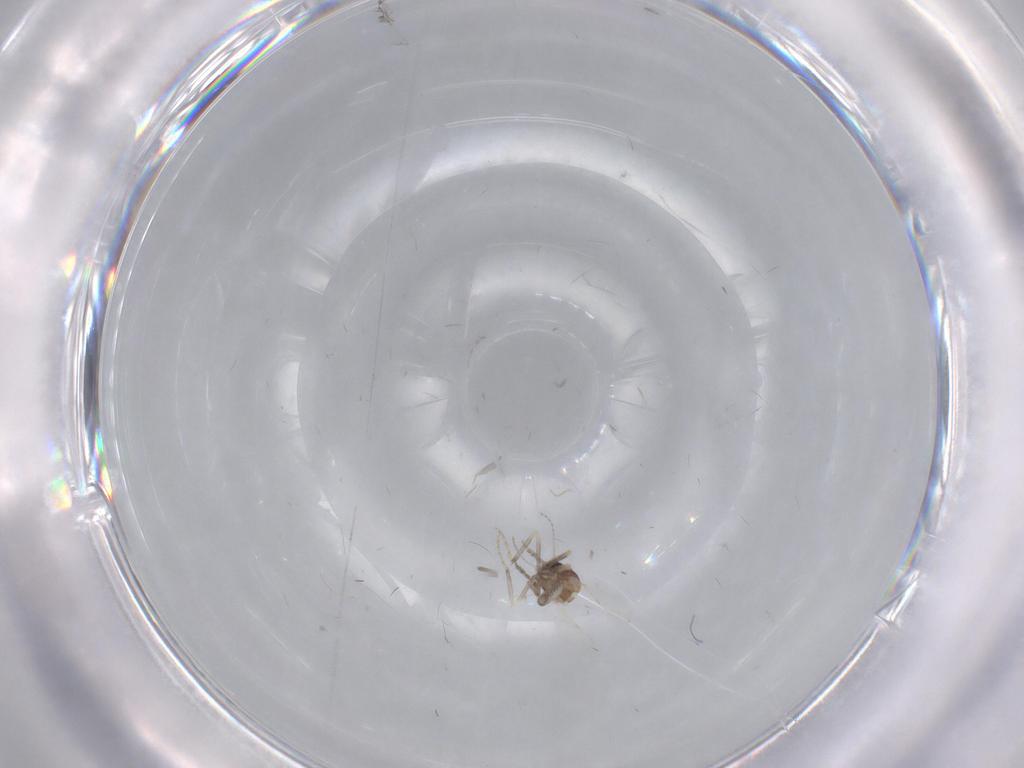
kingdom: Animalia
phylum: Arthropoda
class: Insecta
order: Diptera
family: Ceratopogonidae
